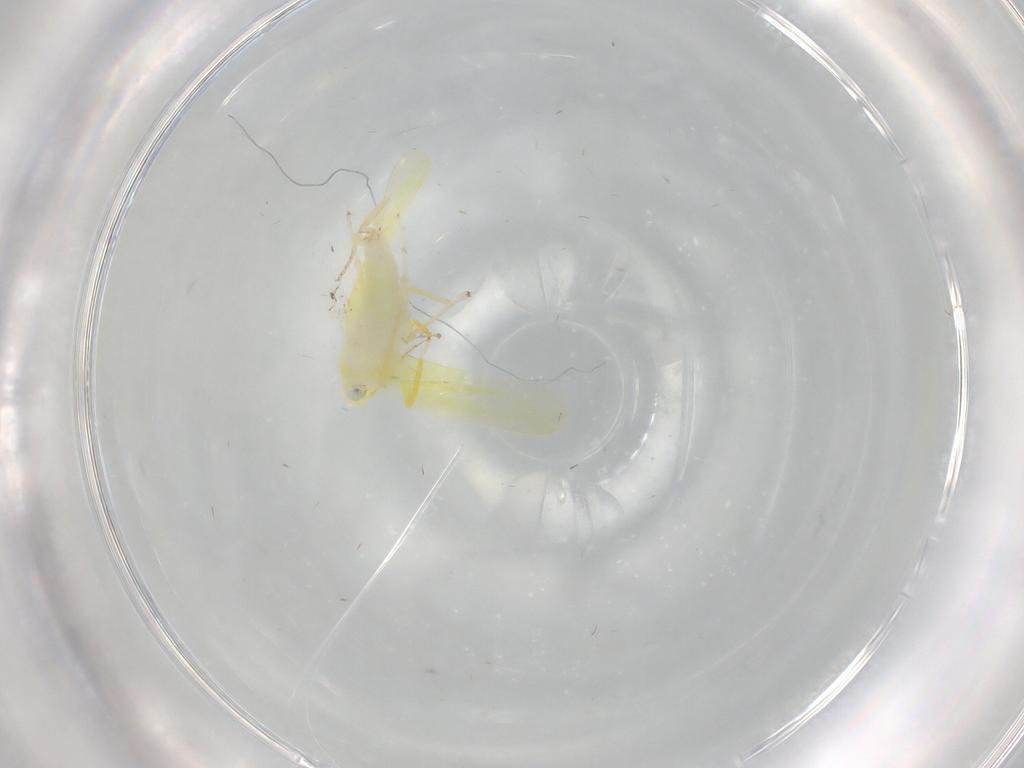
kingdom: Animalia
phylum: Arthropoda
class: Insecta
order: Hemiptera
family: Cicadellidae
